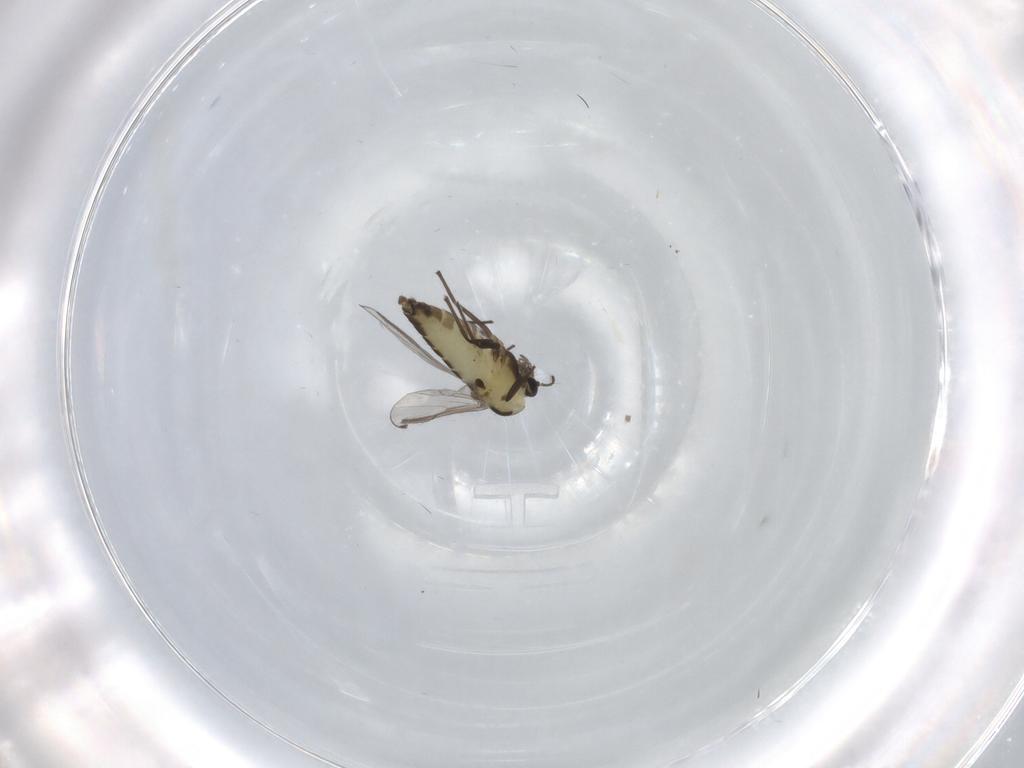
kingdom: Animalia
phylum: Arthropoda
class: Insecta
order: Diptera
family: Chironomidae
